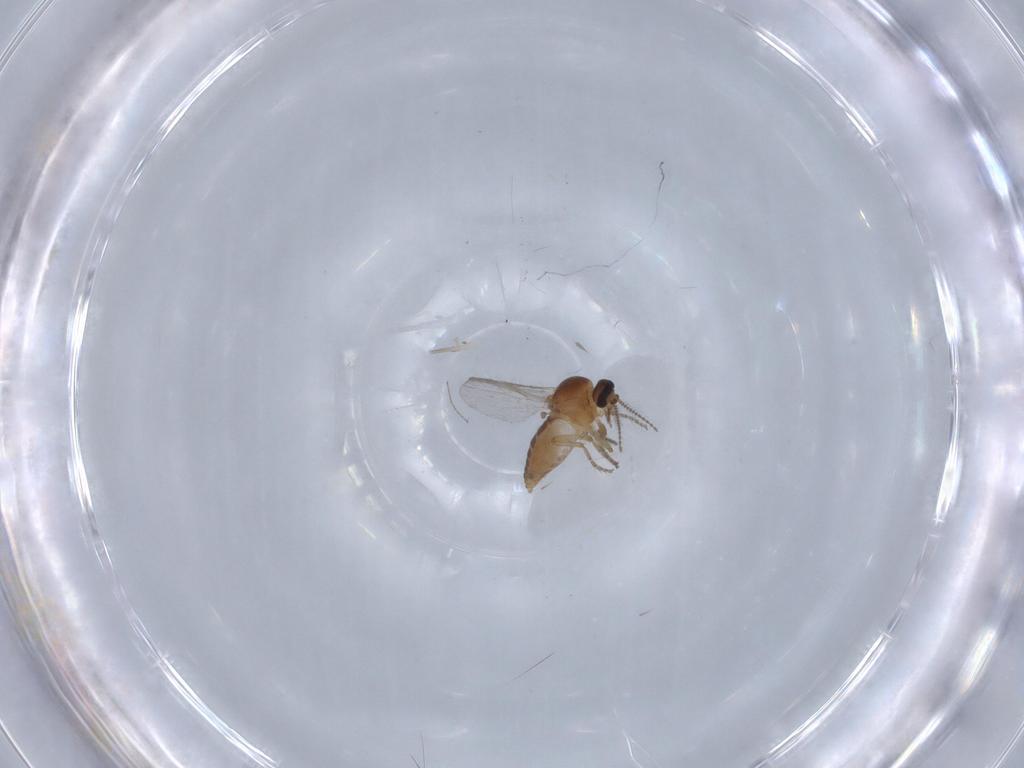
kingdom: Animalia
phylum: Arthropoda
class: Insecta
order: Diptera
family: Ceratopogonidae
